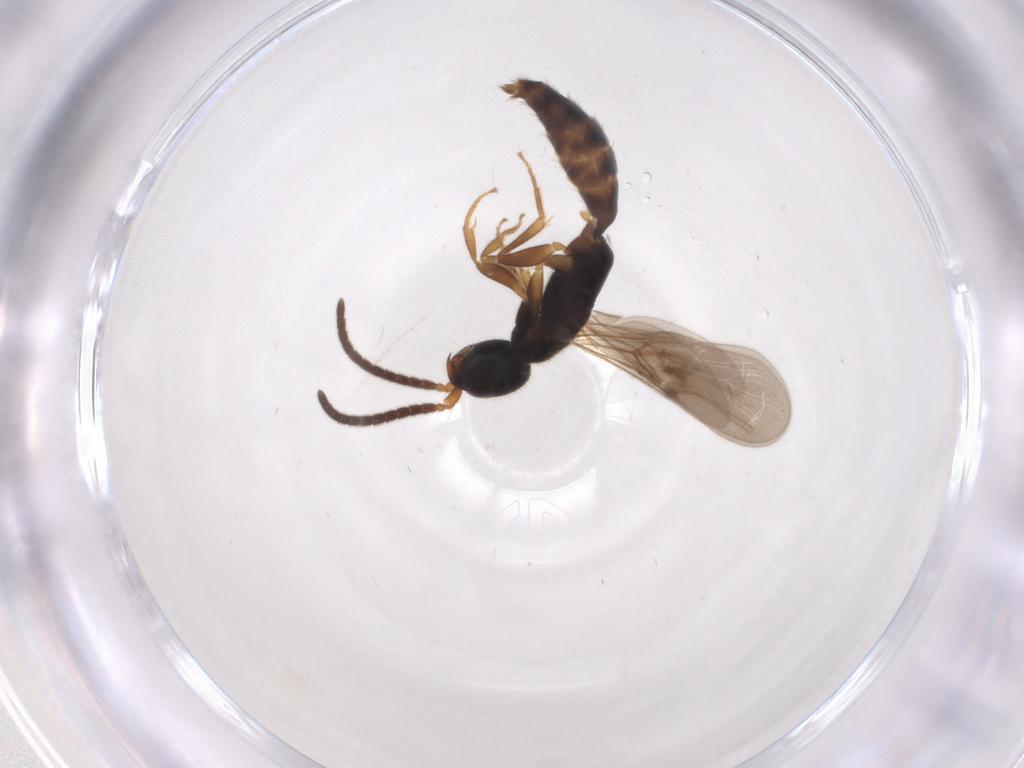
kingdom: Animalia
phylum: Arthropoda
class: Insecta
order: Hymenoptera
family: Bethylidae
